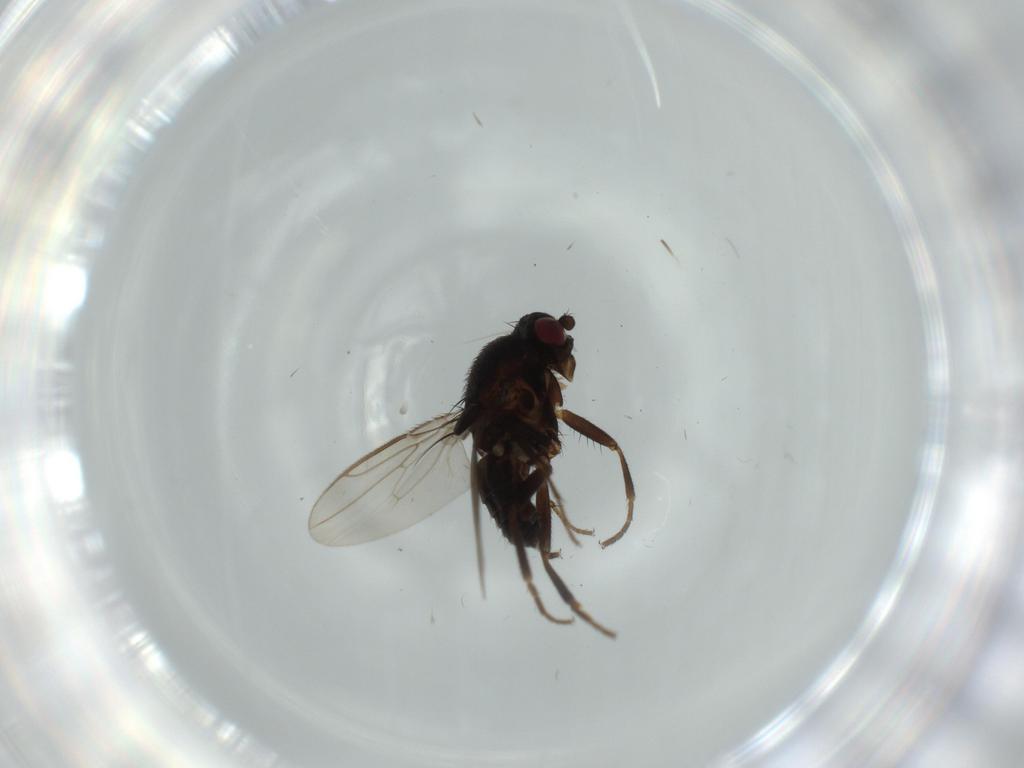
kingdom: Animalia
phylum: Arthropoda
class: Insecta
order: Diptera
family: Sphaeroceridae
